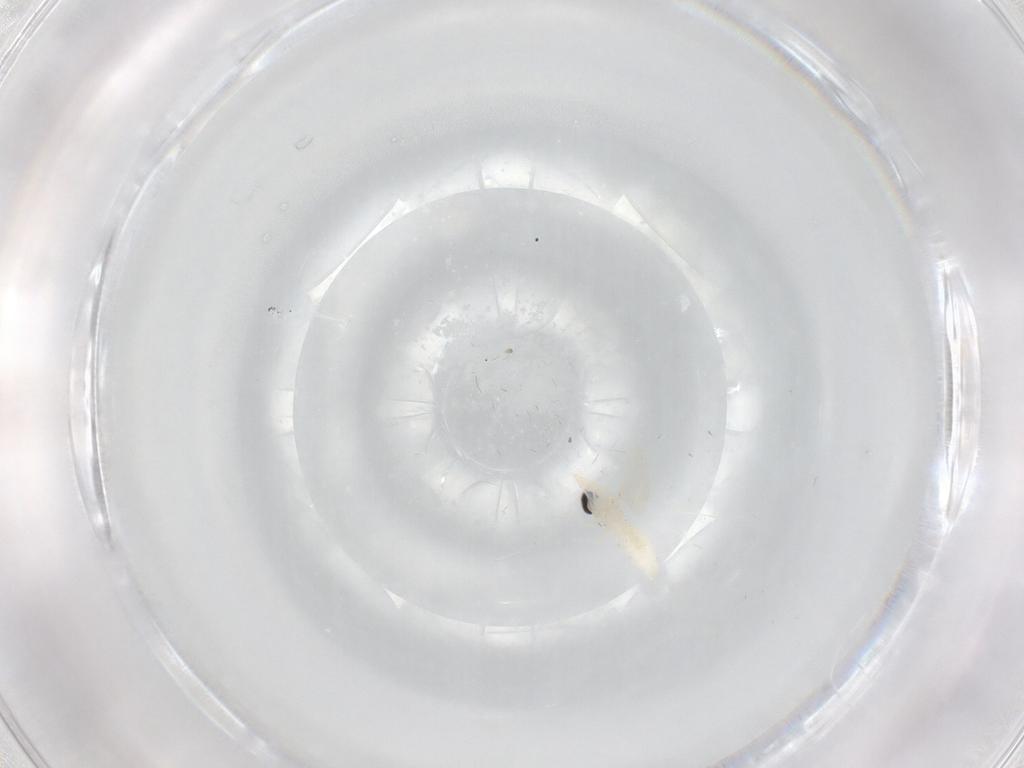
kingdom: Animalia
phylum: Arthropoda
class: Insecta
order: Diptera
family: Cecidomyiidae
